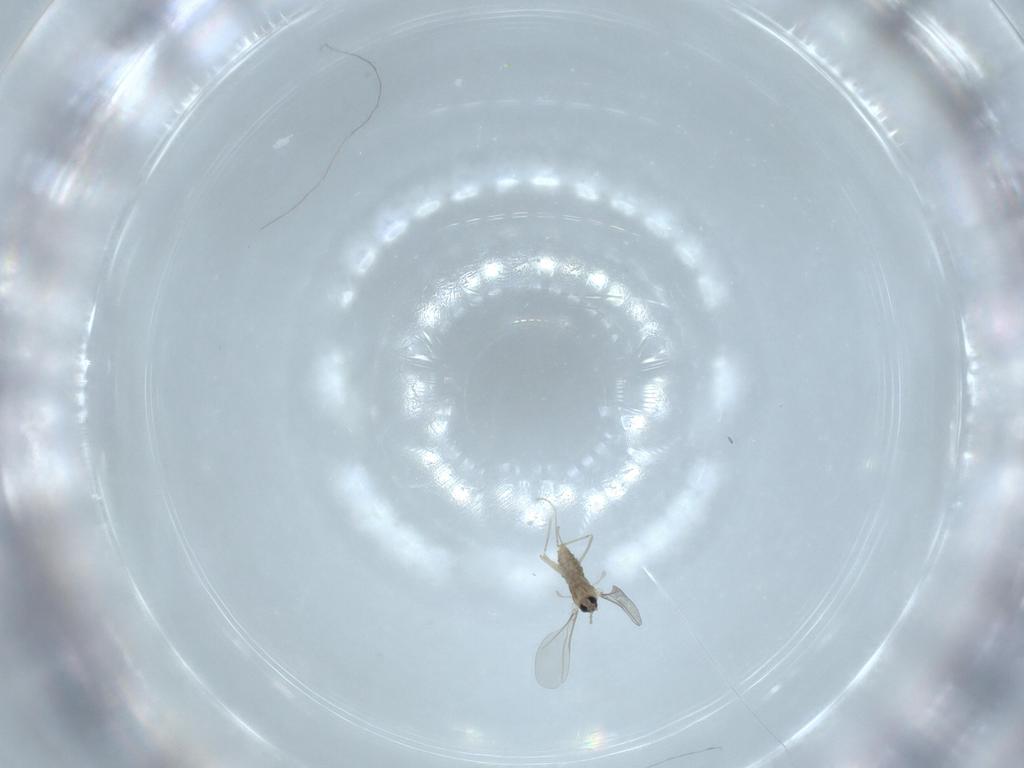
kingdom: Animalia
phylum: Arthropoda
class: Insecta
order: Diptera
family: Cecidomyiidae
